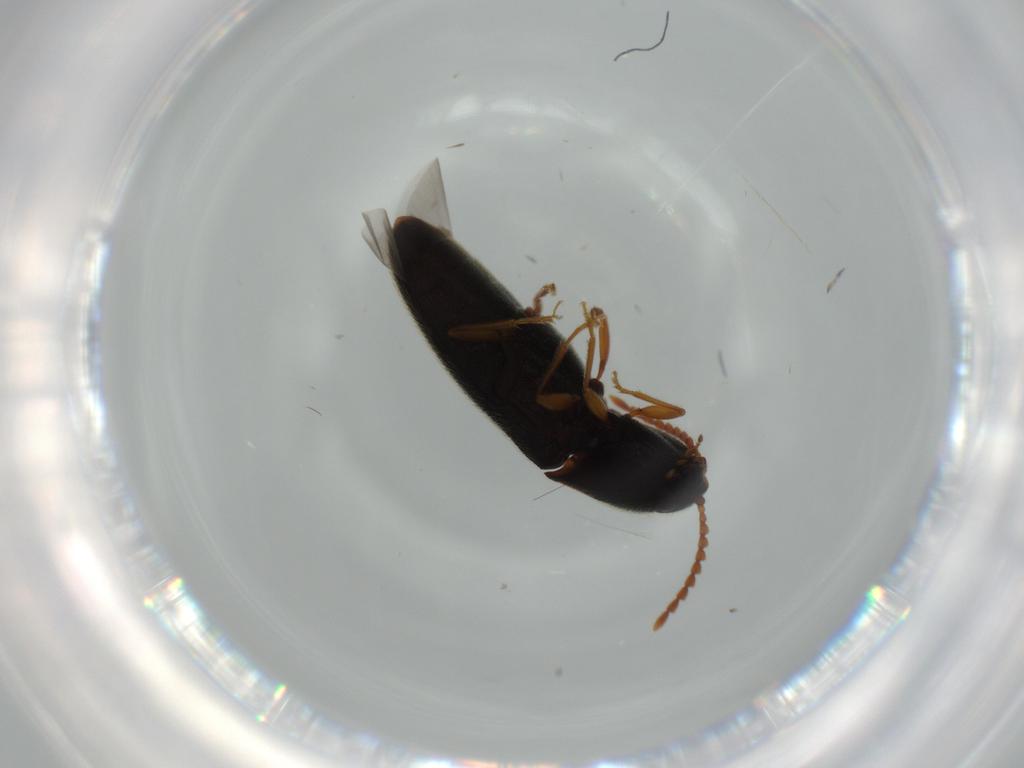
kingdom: Animalia
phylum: Arthropoda
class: Insecta
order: Coleoptera
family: Elateridae
